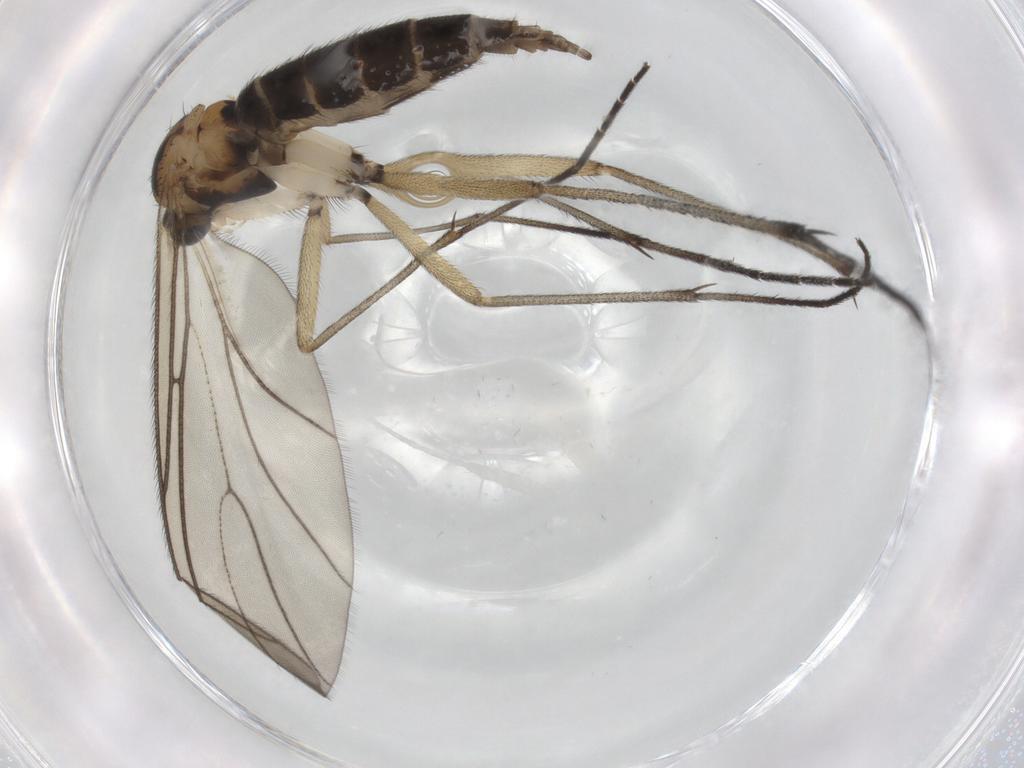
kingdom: Animalia
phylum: Arthropoda
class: Insecta
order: Diptera
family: Sciaridae
